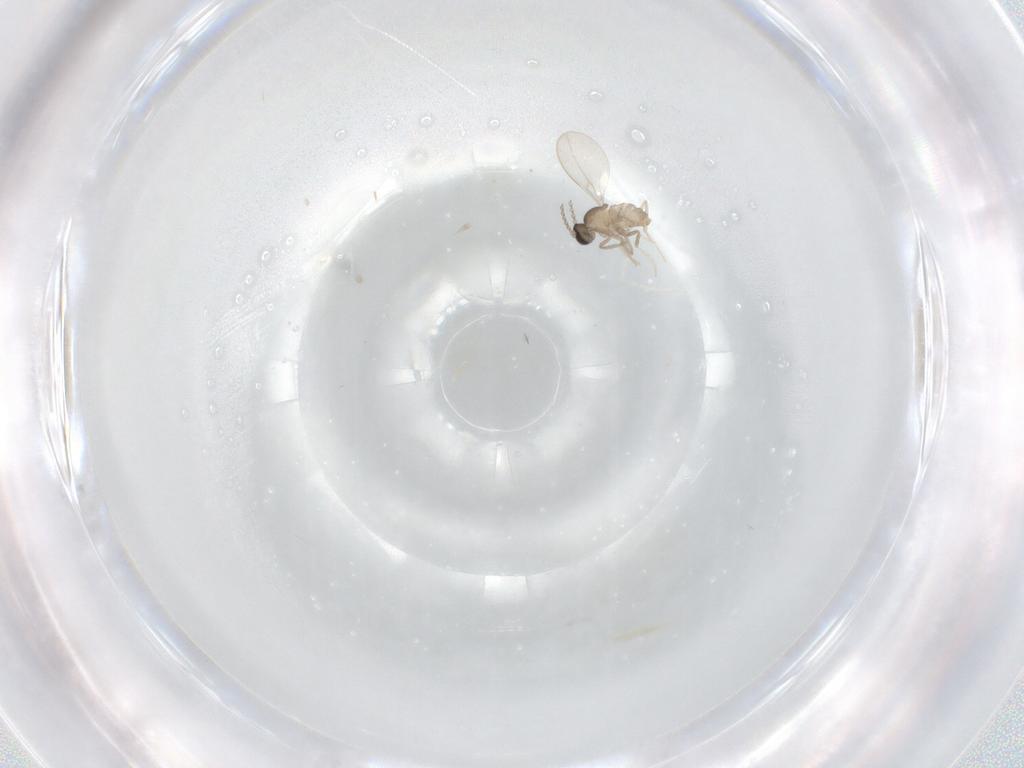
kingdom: Animalia
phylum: Arthropoda
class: Insecta
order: Diptera
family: Cecidomyiidae
